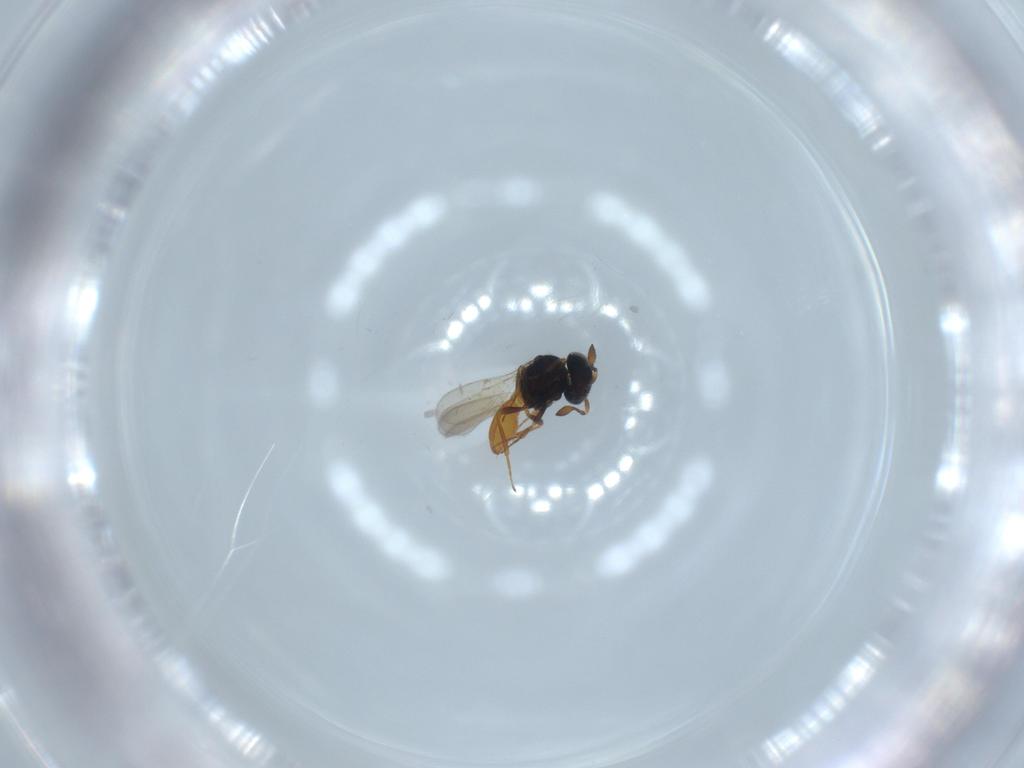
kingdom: Animalia
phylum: Arthropoda
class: Insecta
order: Hymenoptera
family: Scelionidae
